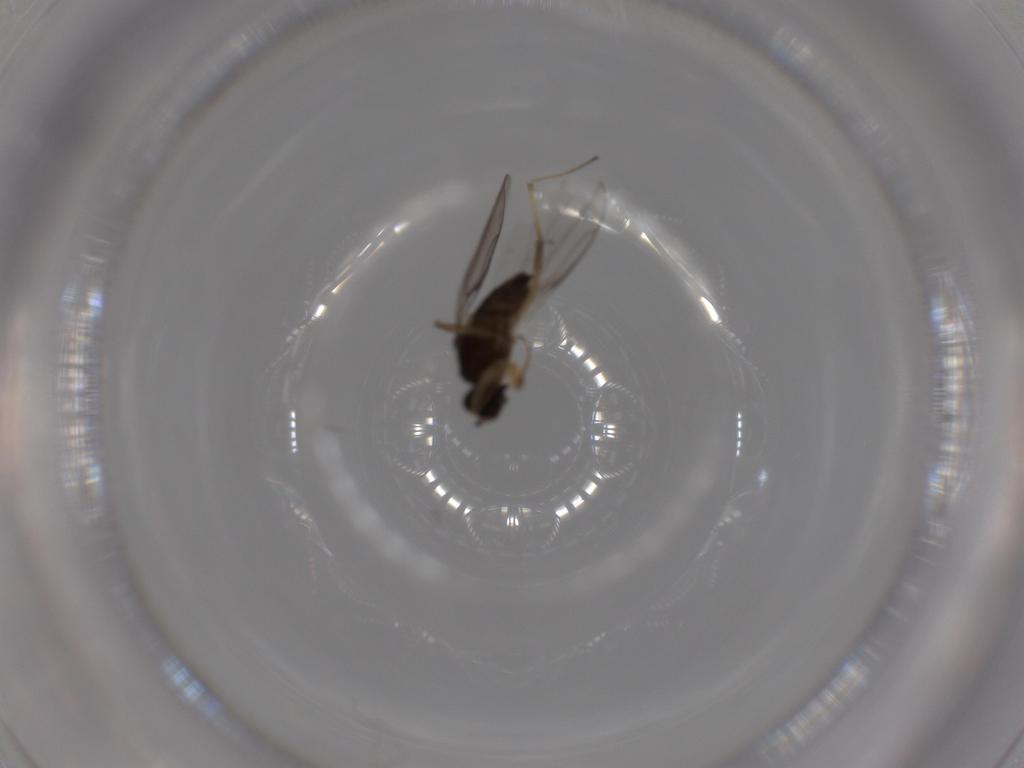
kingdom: Animalia
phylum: Arthropoda
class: Insecta
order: Diptera
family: Hybotidae
